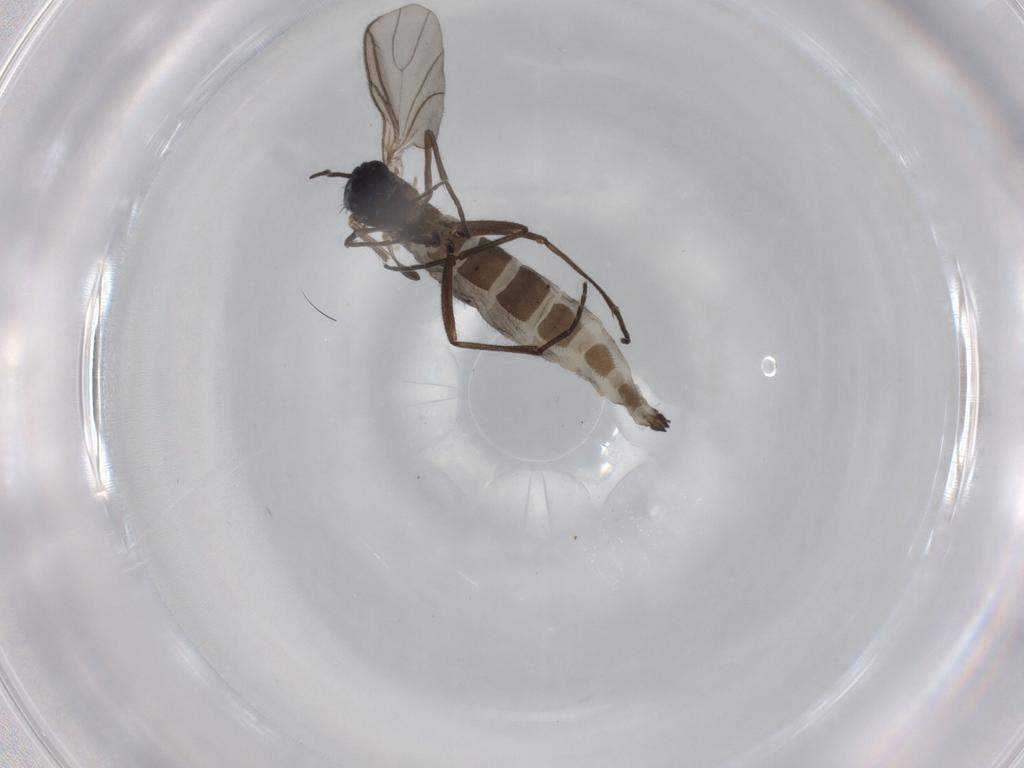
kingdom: Animalia
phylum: Arthropoda
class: Insecta
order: Diptera
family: Sciaridae
